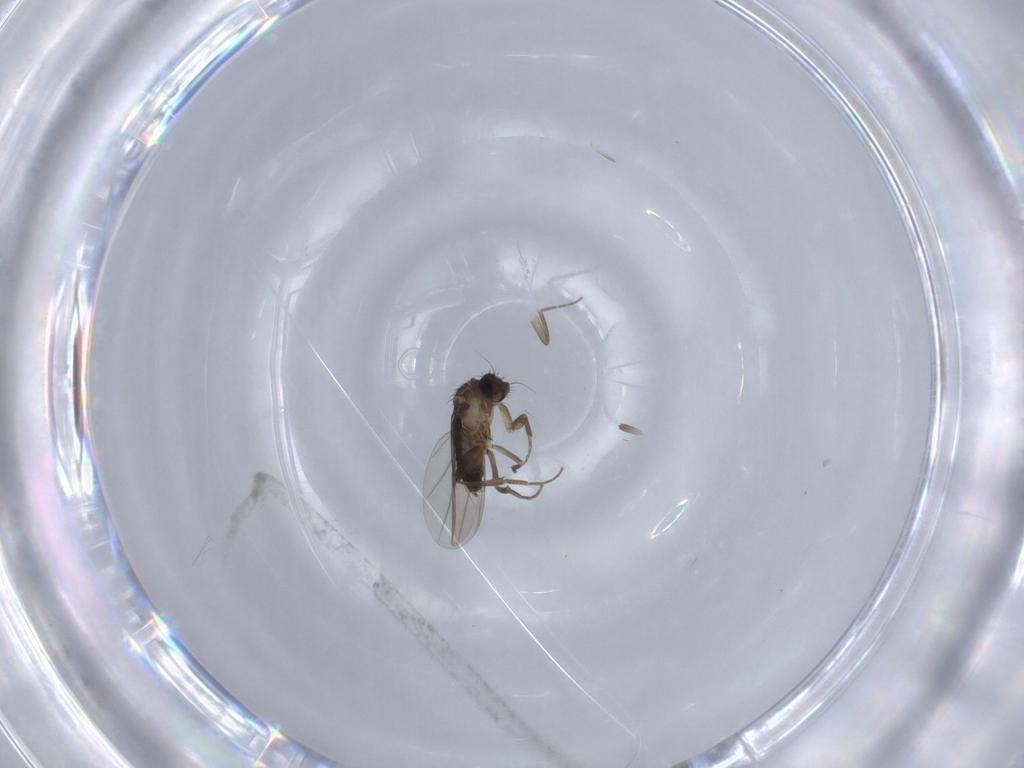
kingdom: Animalia
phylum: Arthropoda
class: Insecta
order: Diptera
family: Phoridae
